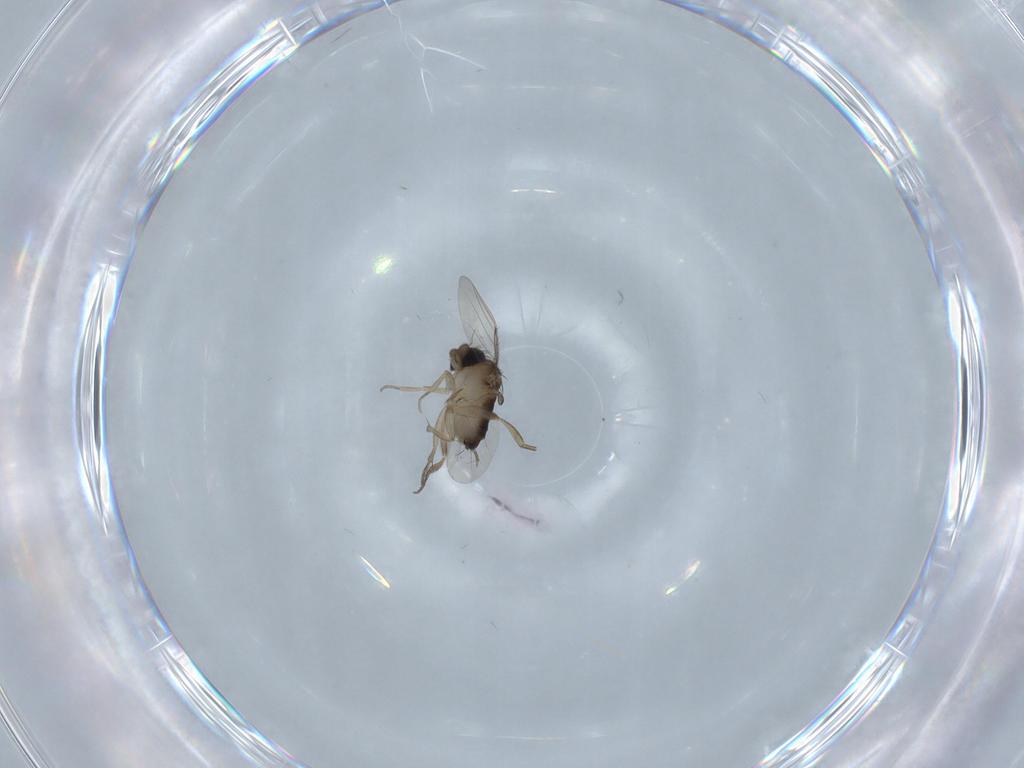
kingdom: Animalia
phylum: Arthropoda
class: Insecta
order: Diptera
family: Phoridae
